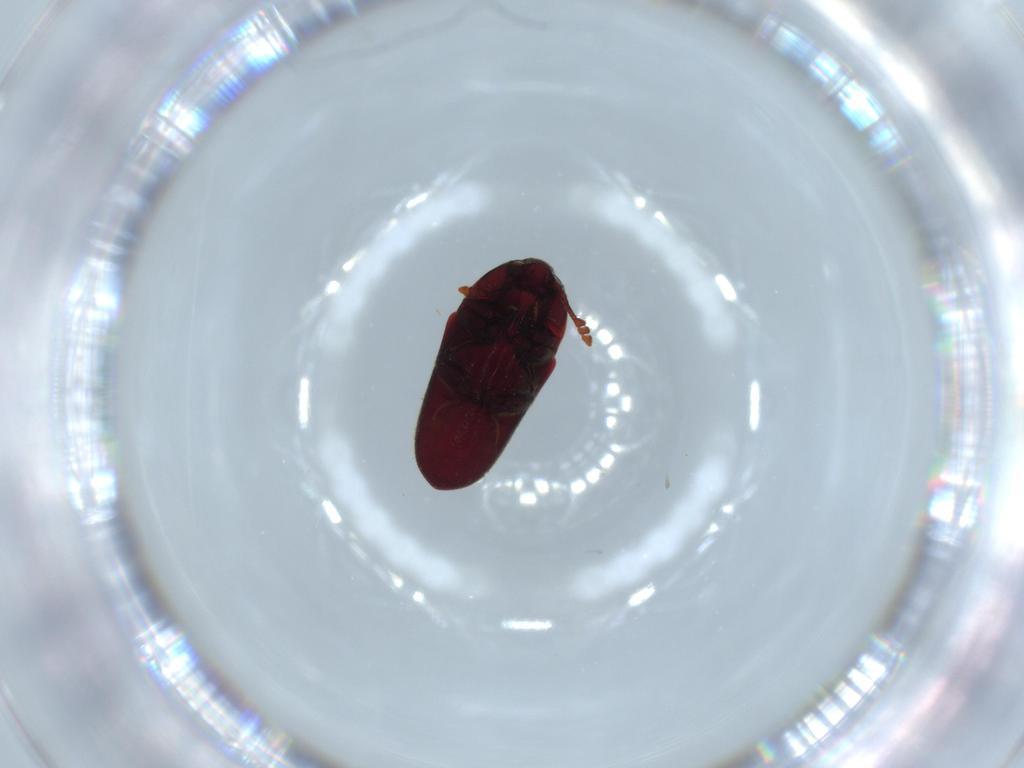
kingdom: Animalia
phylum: Arthropoda
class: Insecta
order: Coleoptera
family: Throscidae
